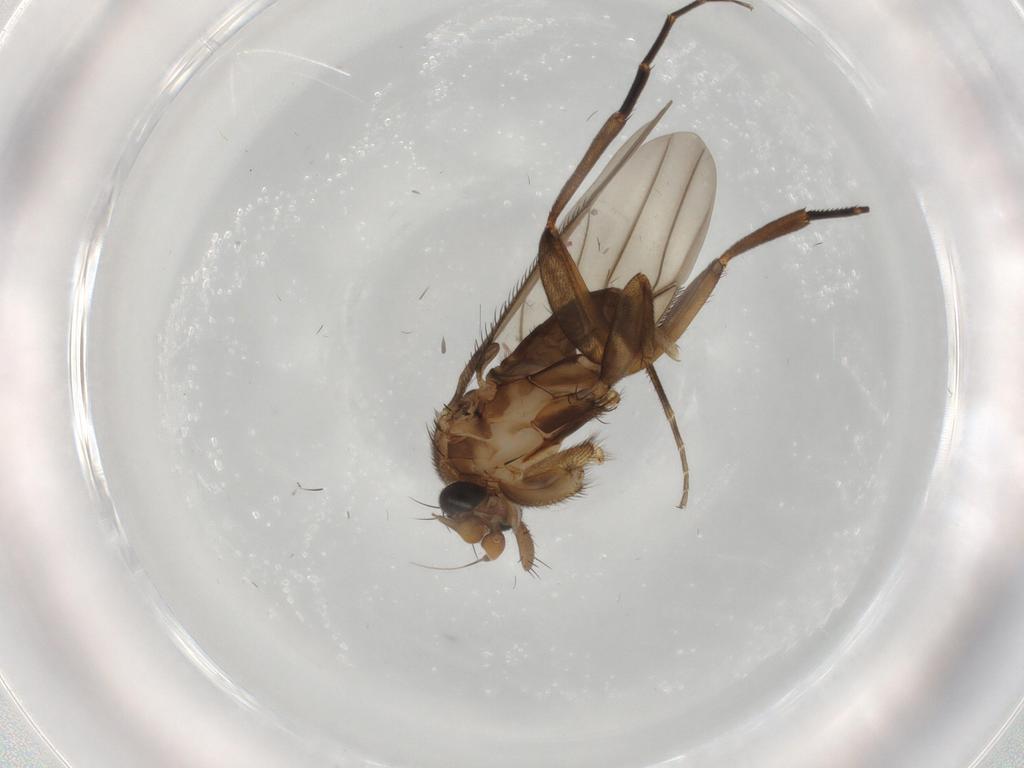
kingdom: Animalia
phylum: Arthropoda
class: Insecta
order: Diptera
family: Phoridae
